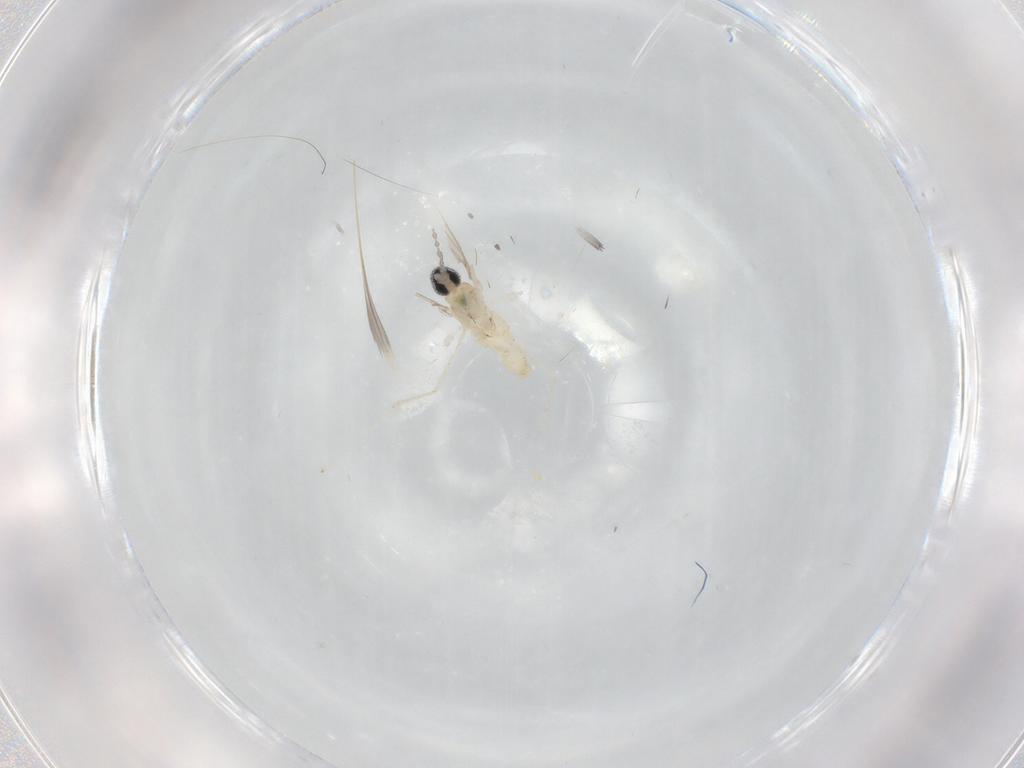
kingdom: Animalia
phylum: Arthropoda
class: Insecta
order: Diptera
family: Cecidomyiidae
